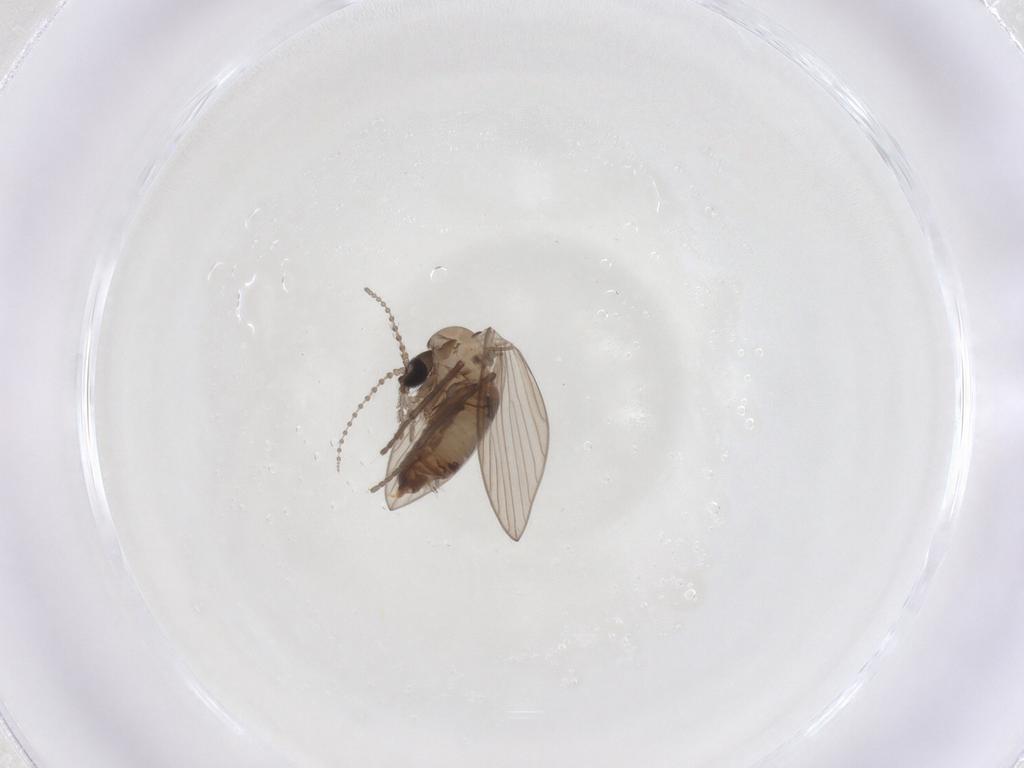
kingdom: Animalia
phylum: Arthropoda
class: Insecta
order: Diptera
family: Psychodidae
